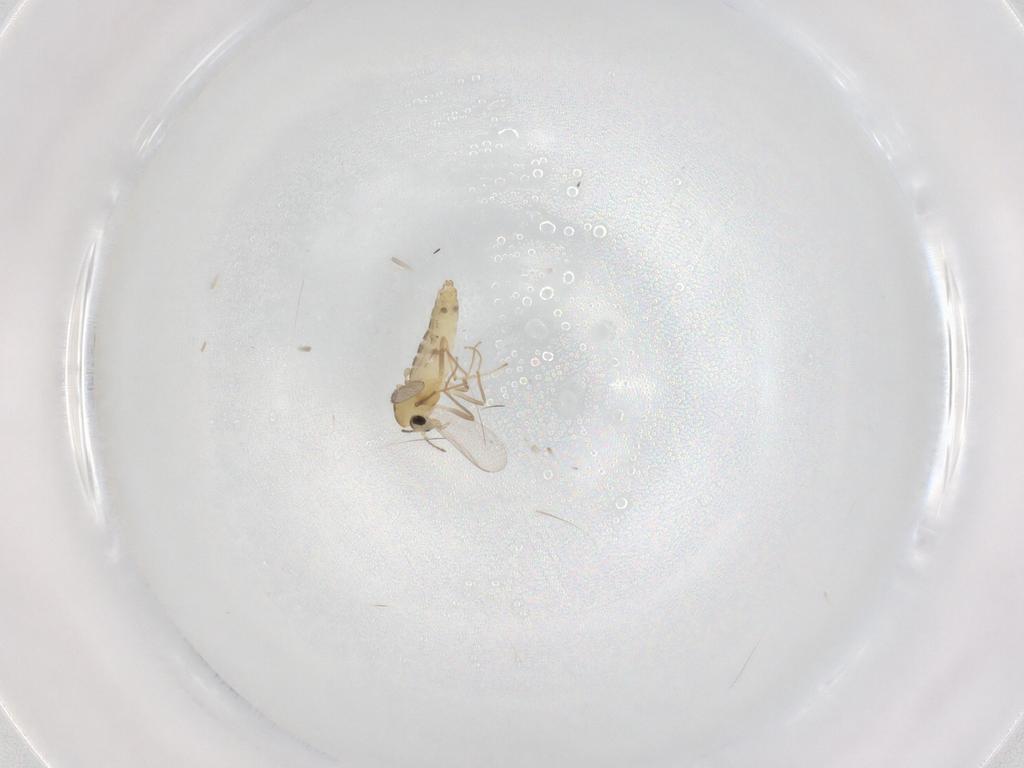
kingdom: Animalia
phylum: Arthropoda
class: Insecta
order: Diptera
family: Chironomidae
